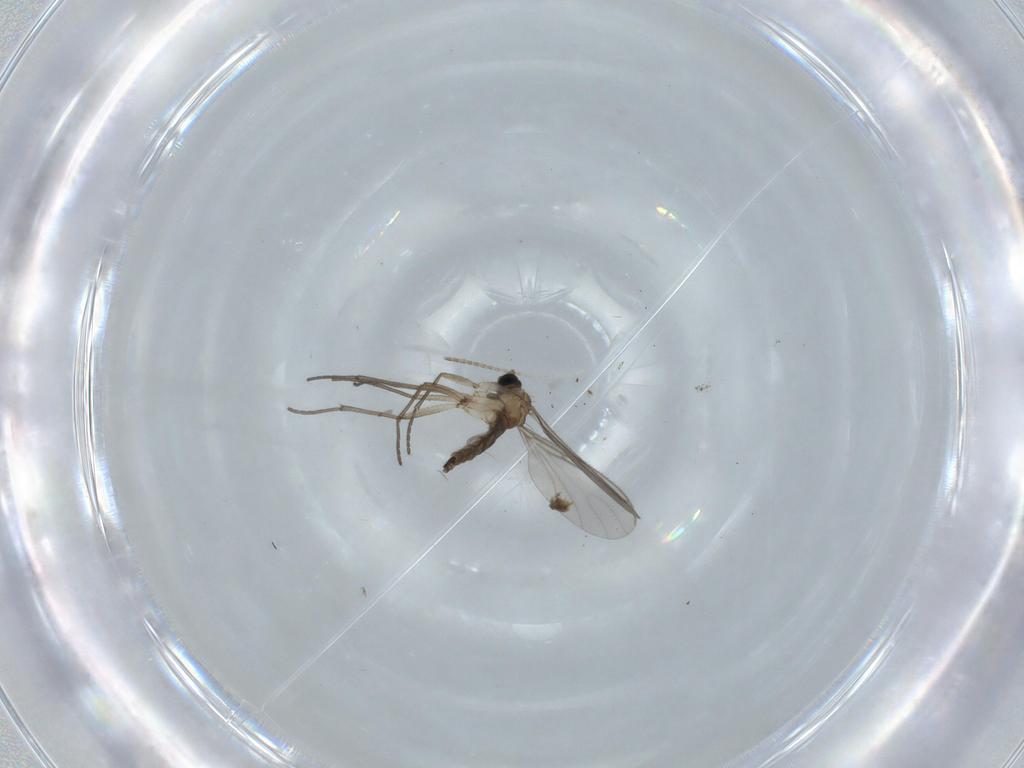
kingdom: Animalia
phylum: Arthropoda
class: Insecta
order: Diptera
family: Sciaridae
